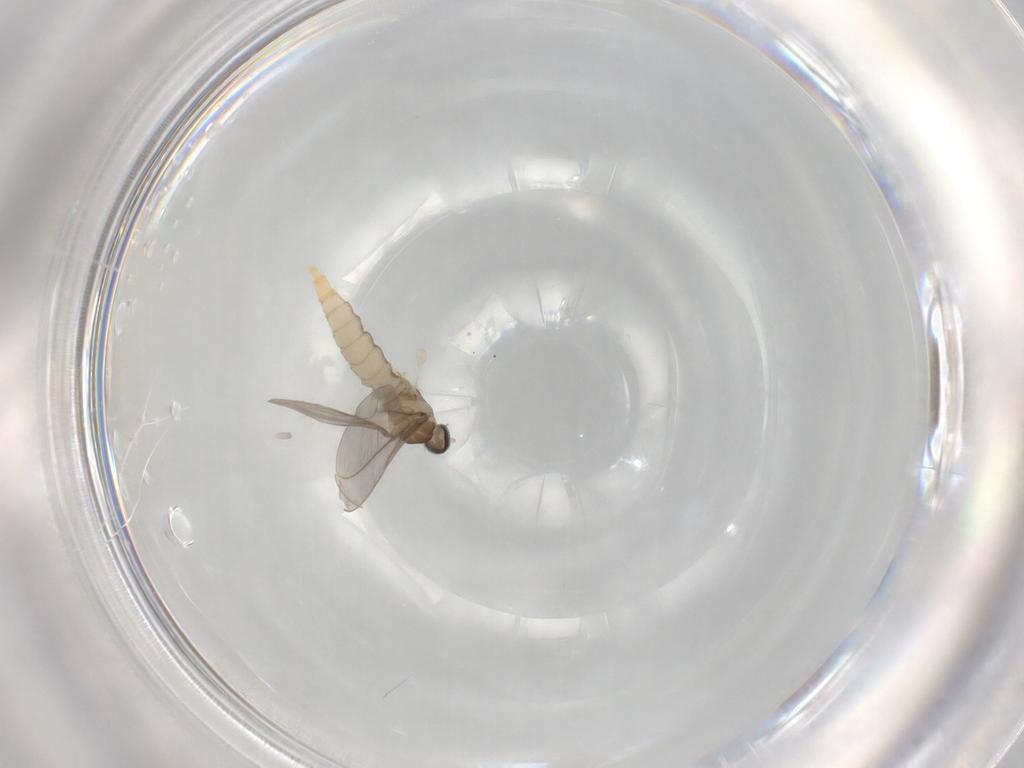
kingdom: Animalia
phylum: Arthropoda
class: Insecta
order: Diptera
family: Cecidomyiidae
